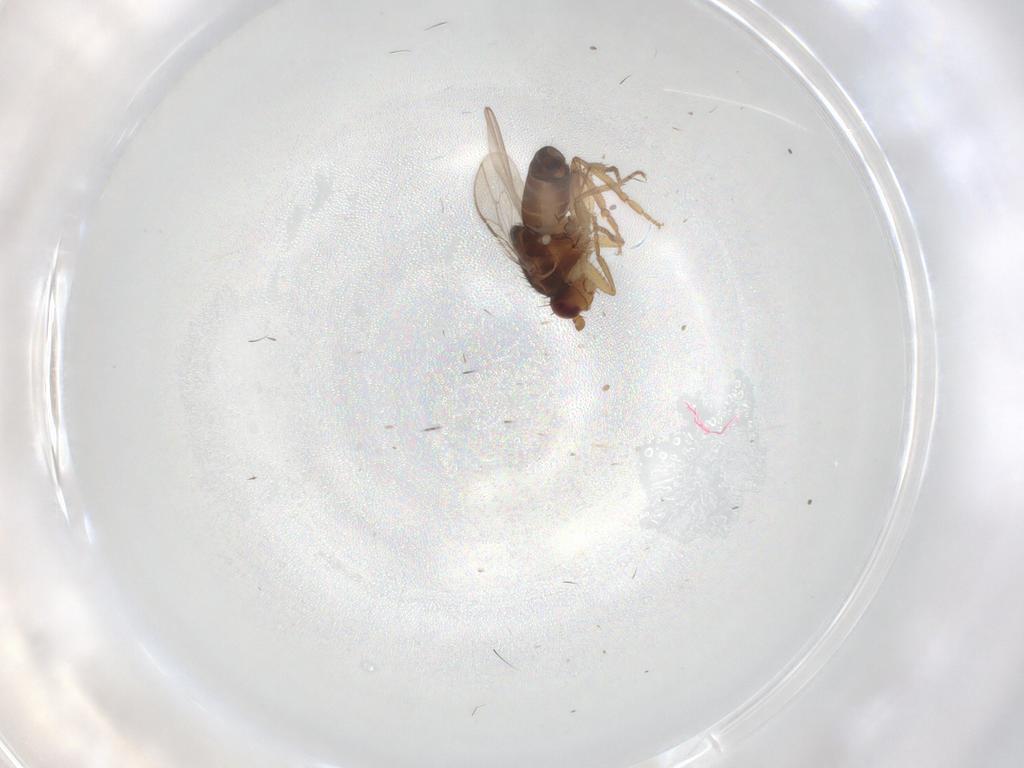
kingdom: Animalia
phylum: Arthropoda
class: Insecta
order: Diptera
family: Sphaeroceridae
